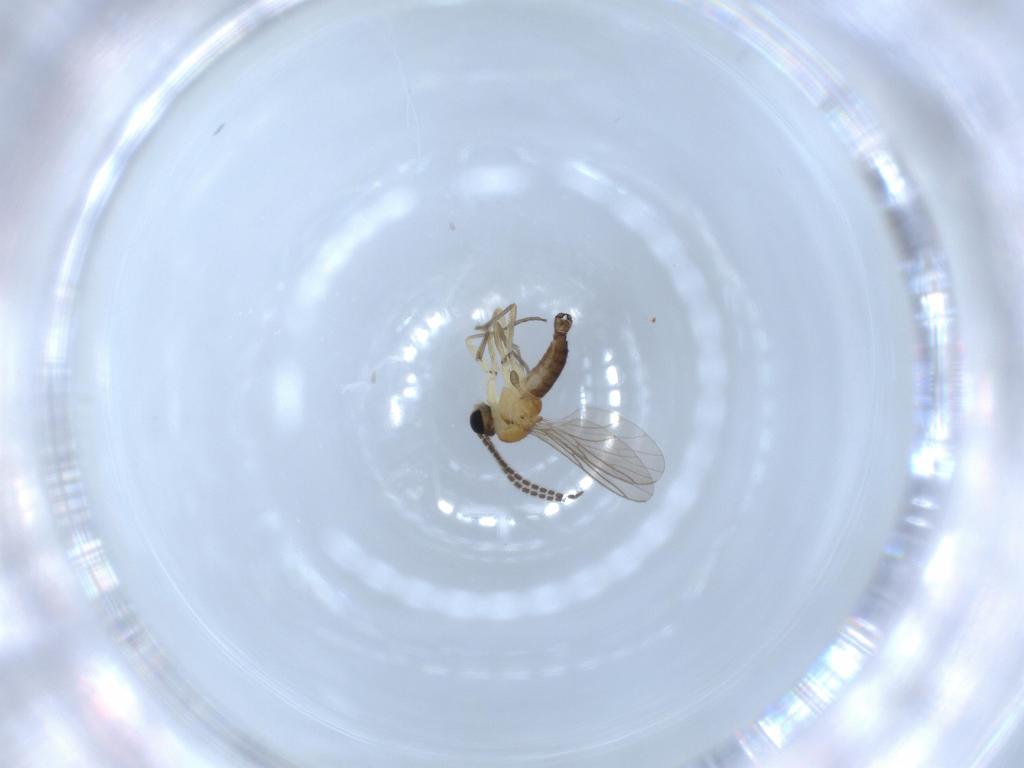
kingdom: Animalia
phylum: Arthropoda
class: Insecta
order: Diptera
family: Sciaridae
